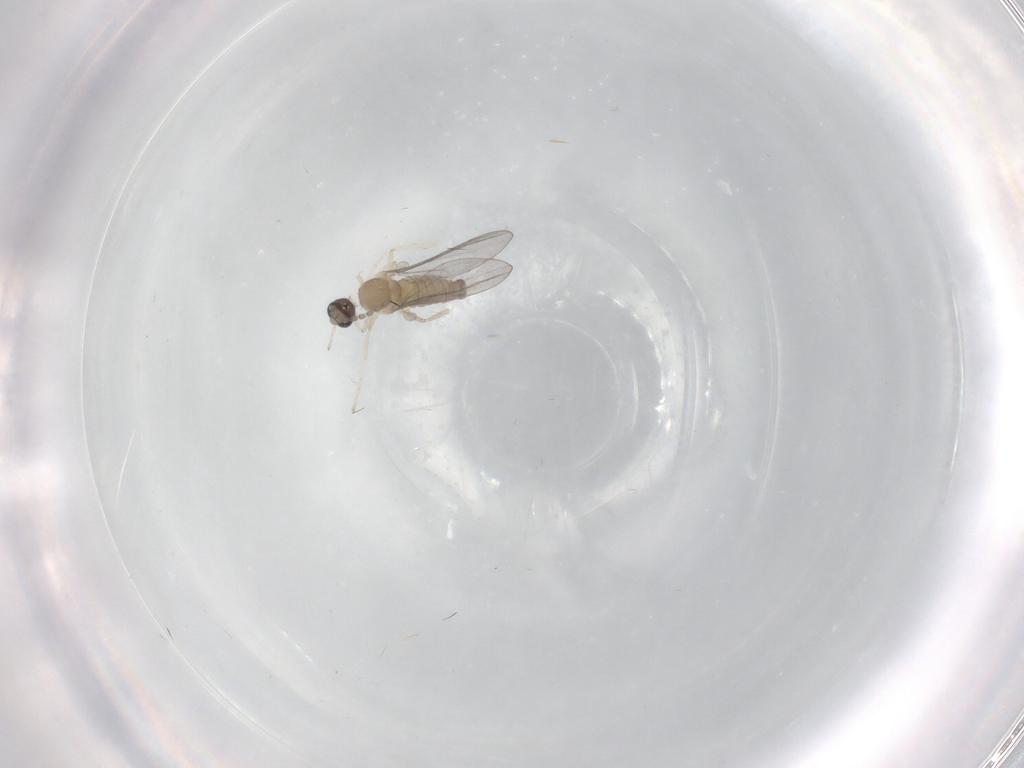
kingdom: Animalia
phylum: Arthropoda
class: Insecta
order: Diptera
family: Cecidomyiidae
